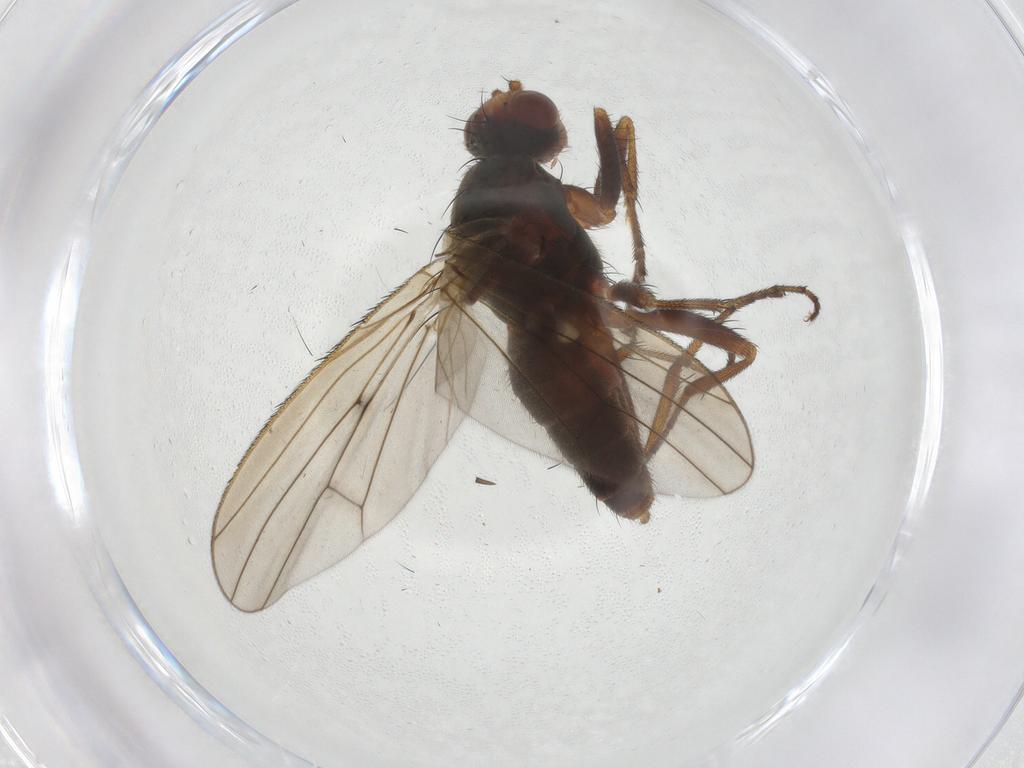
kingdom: Animalia
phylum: Arthropoda
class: Insecta
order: Diptera
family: Heleomyzidae
